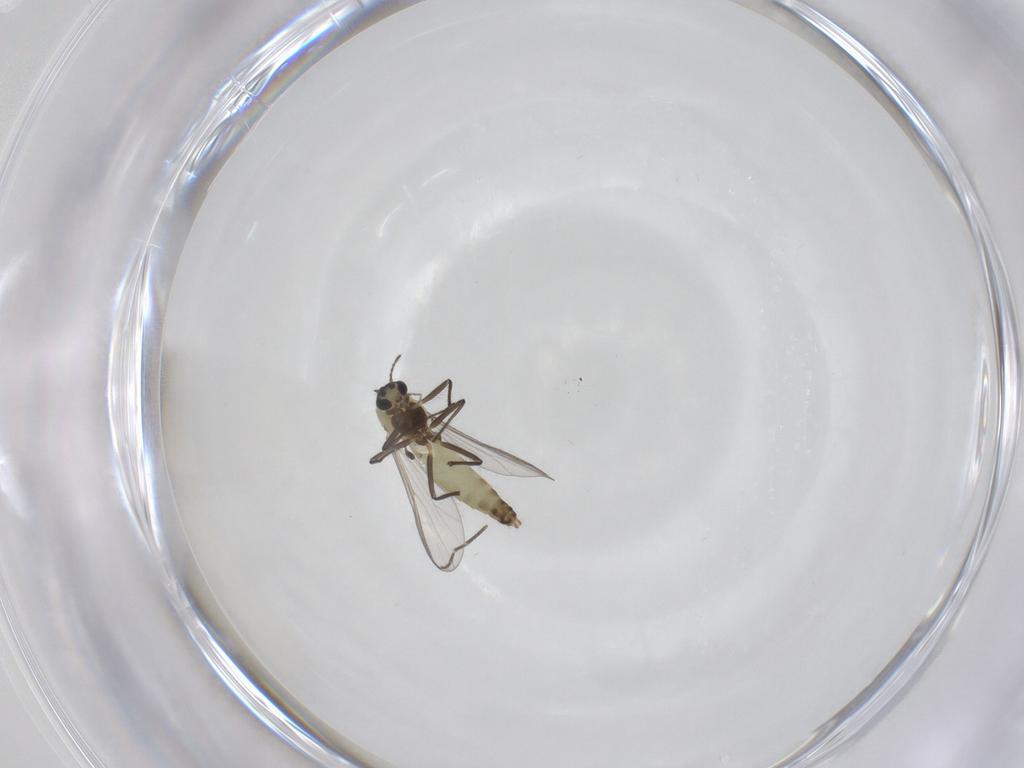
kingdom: Animalia
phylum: Arthropoda
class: Insecta
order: Diptera
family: Chironomidae
